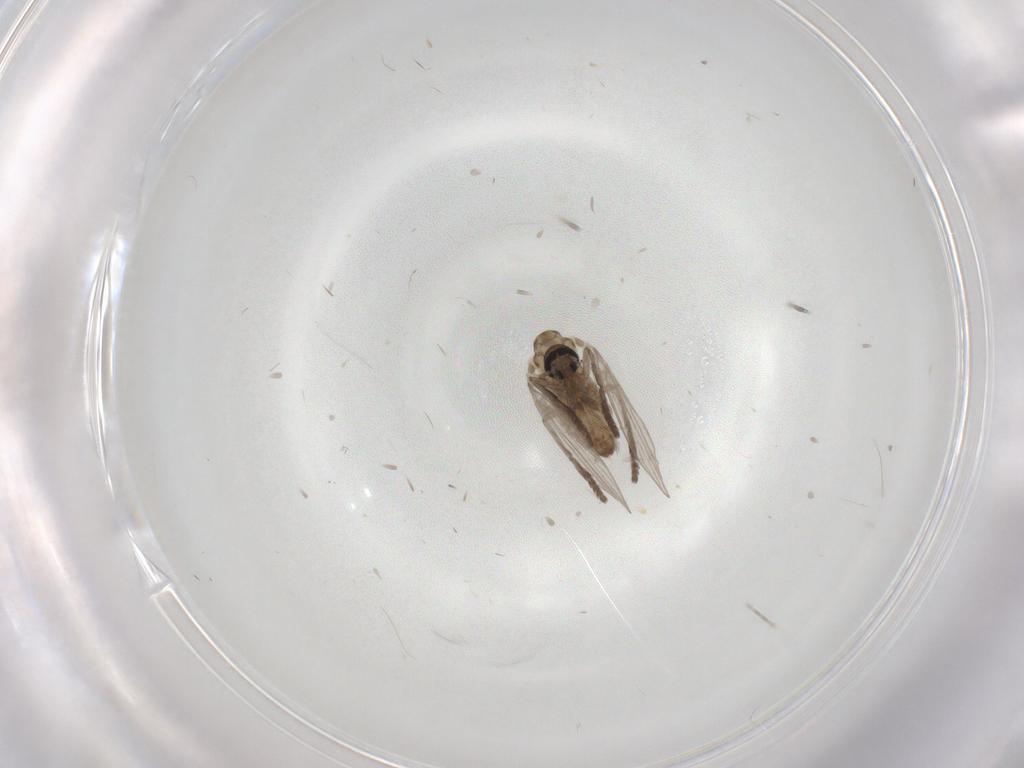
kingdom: Animalia
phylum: Arthropoda
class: Insecta
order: Diptera
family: Psychodidae
